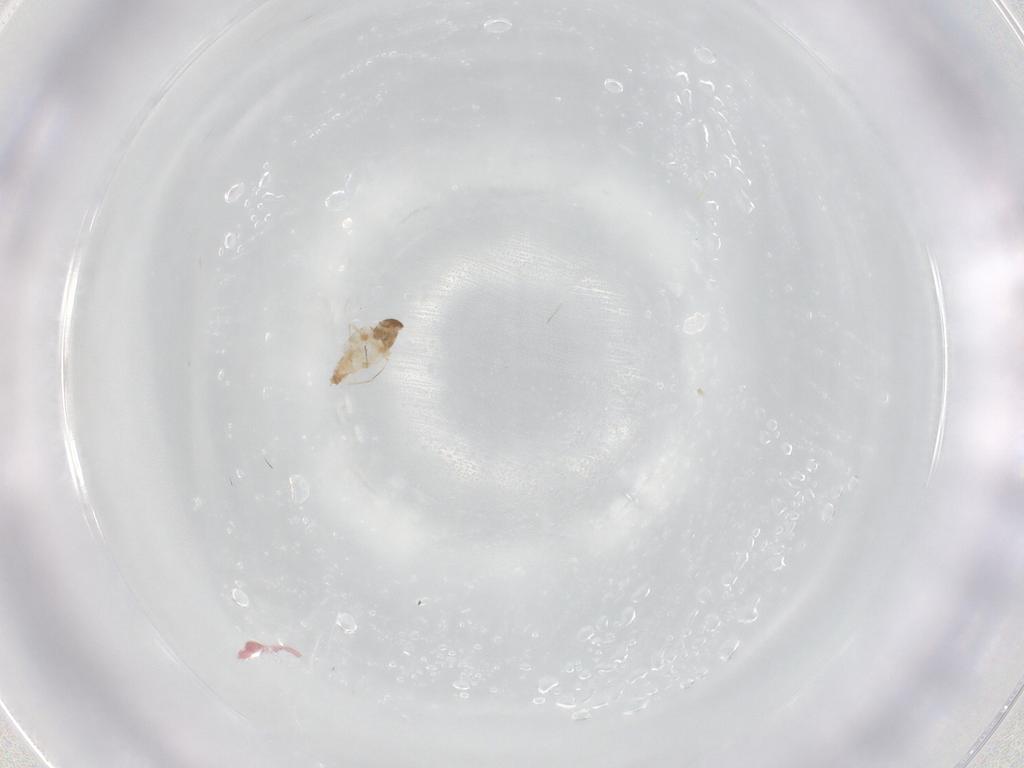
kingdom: Animalia
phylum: Arthropoda
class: Insecta
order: Diptera
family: Cecidomyiidae
